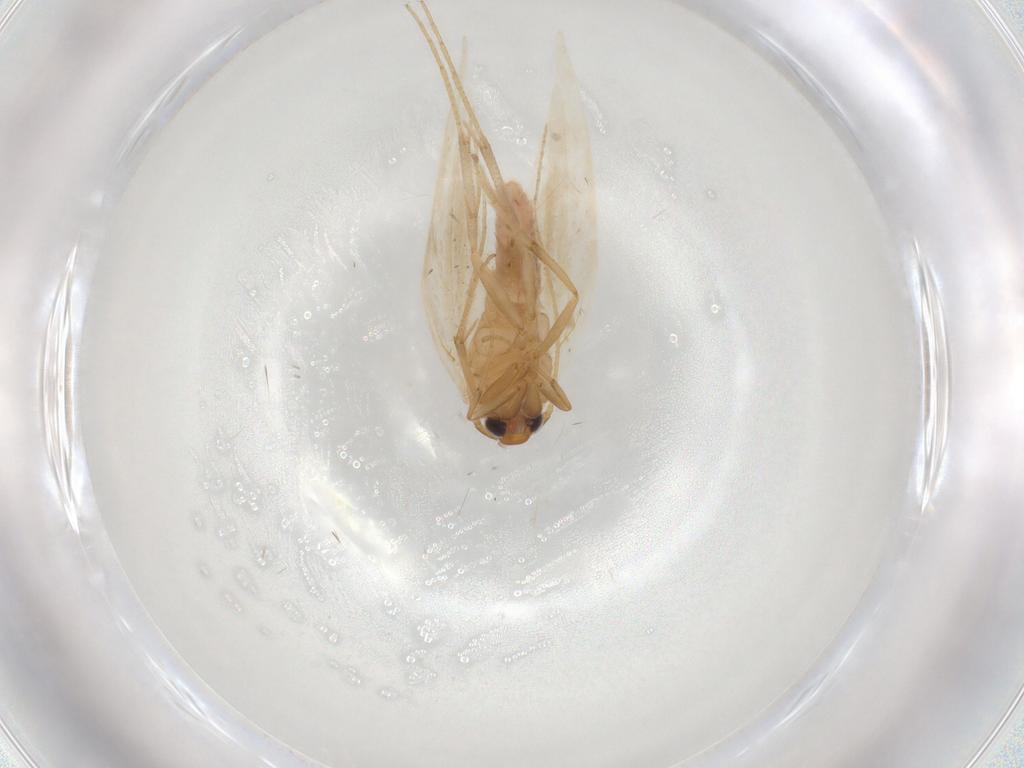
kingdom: Animalia
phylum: Arthropoda
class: Insecta
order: Lepidoptera
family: Gelechiidae
